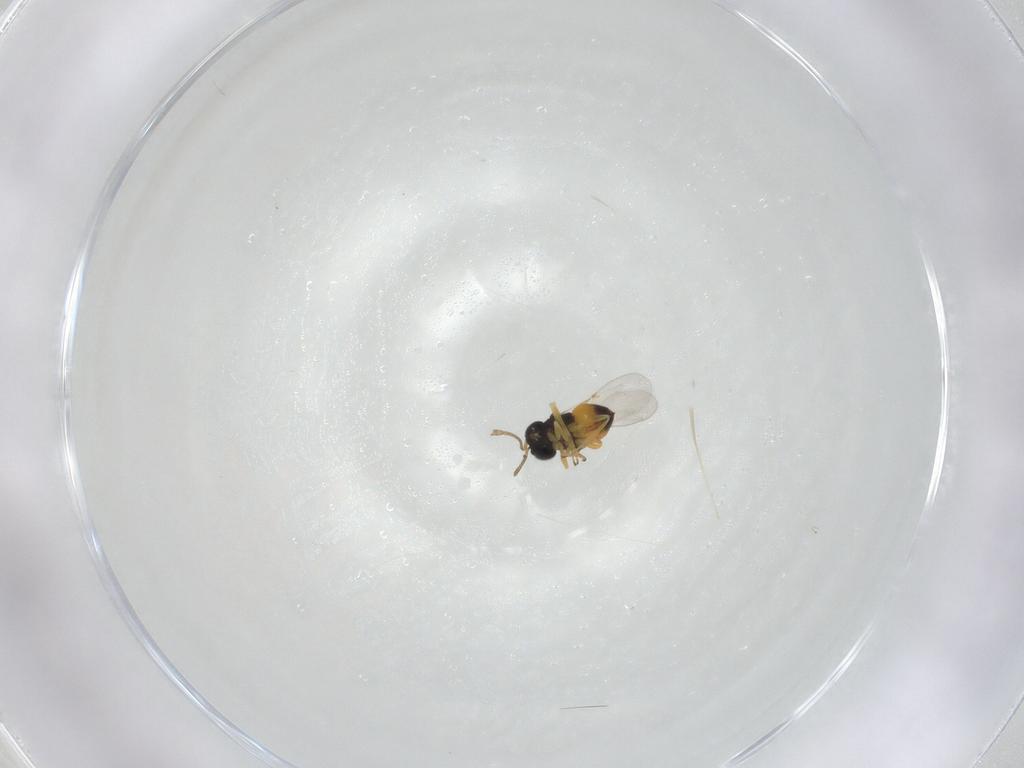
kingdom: Animalia
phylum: Arthropoda
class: Insecta
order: Hymenoptera
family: Encyrtidae
